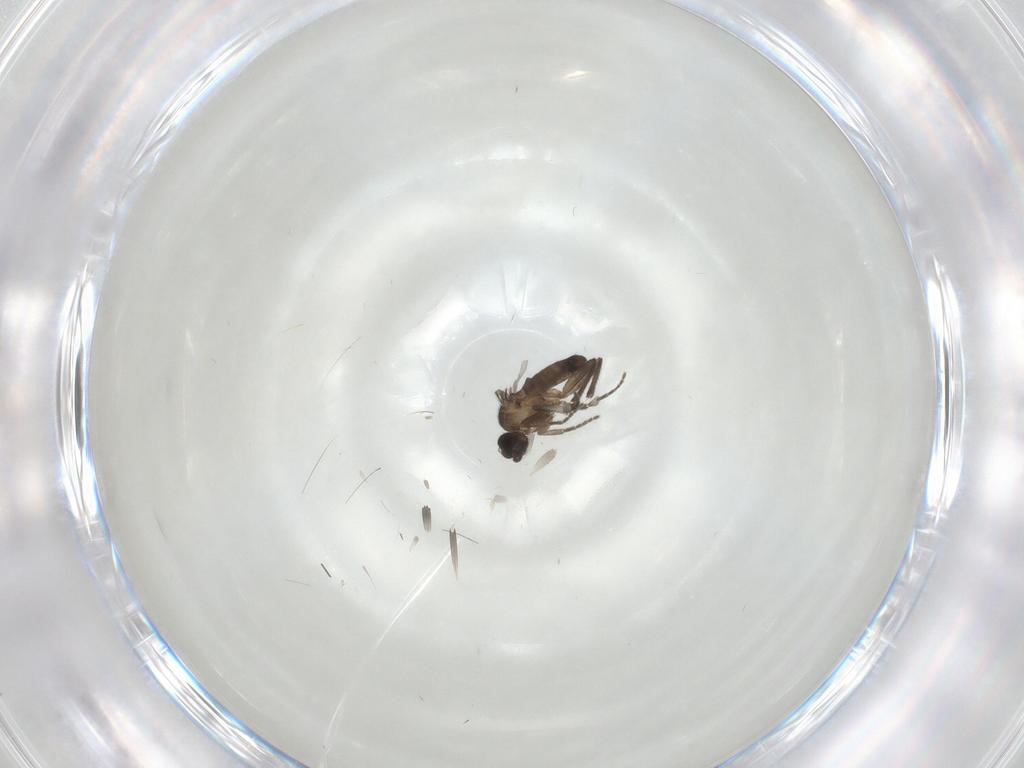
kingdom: Animalia
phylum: Arthropoda
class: Insecta
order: Diptera
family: Phoridae
